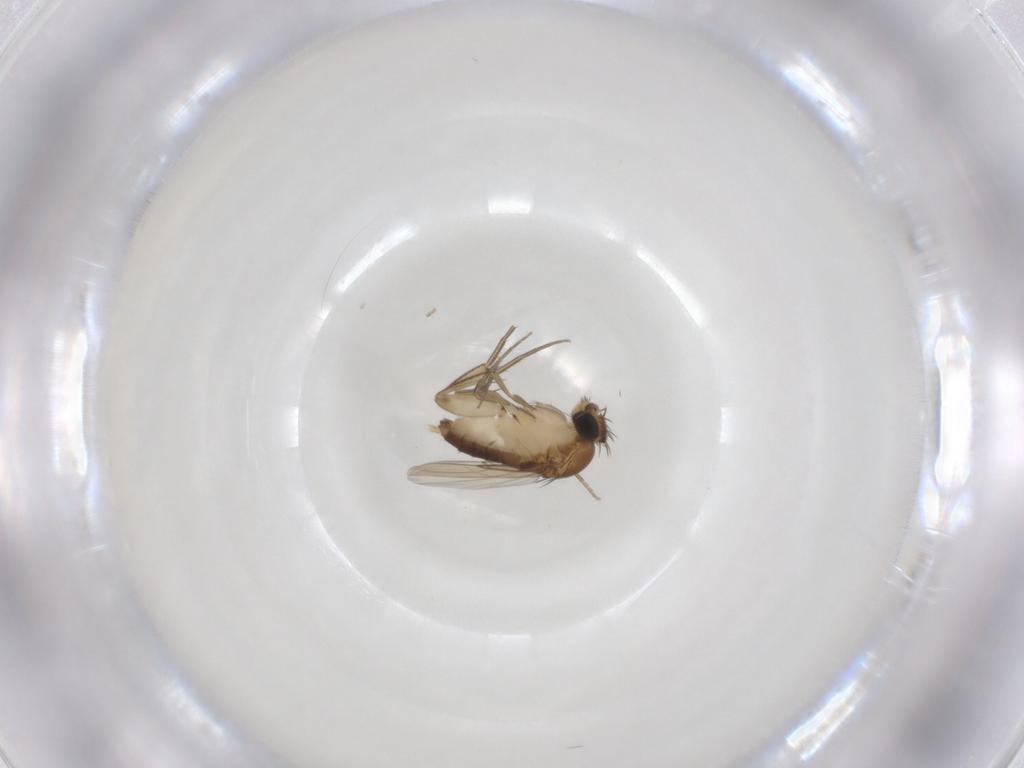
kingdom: Animalia
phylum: Arthropoda
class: Insecta
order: Diptera
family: Phoridae
